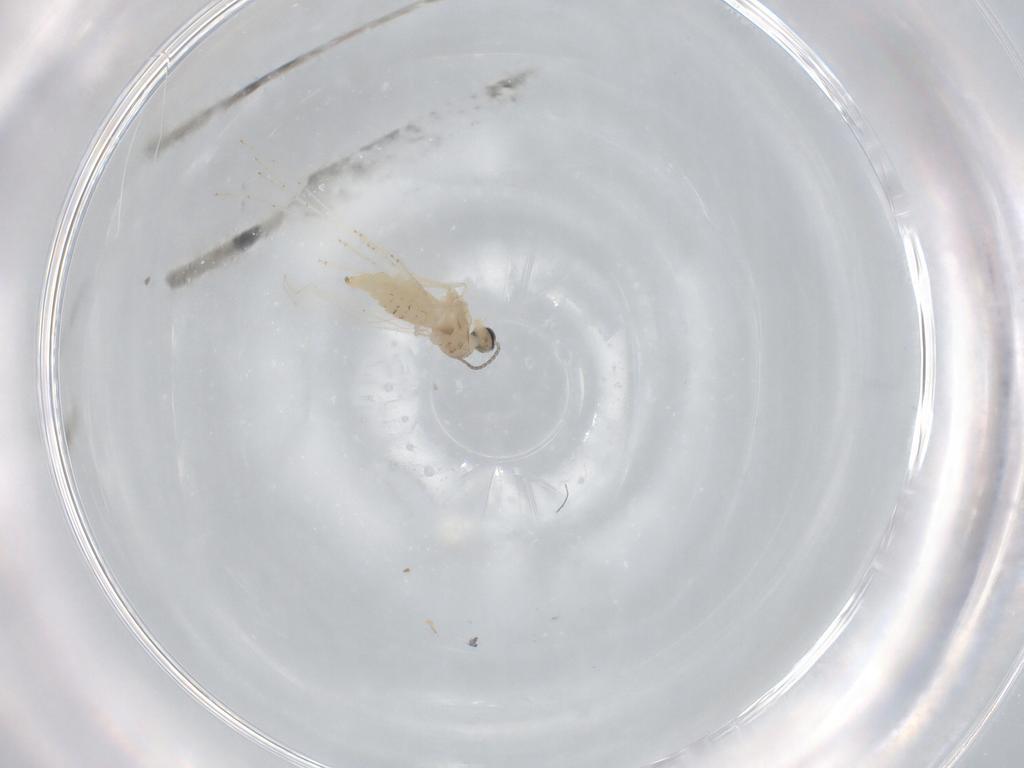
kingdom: Animalia
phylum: Arthropoda
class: Insecta
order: Diptera
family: Cecidomyiidae
